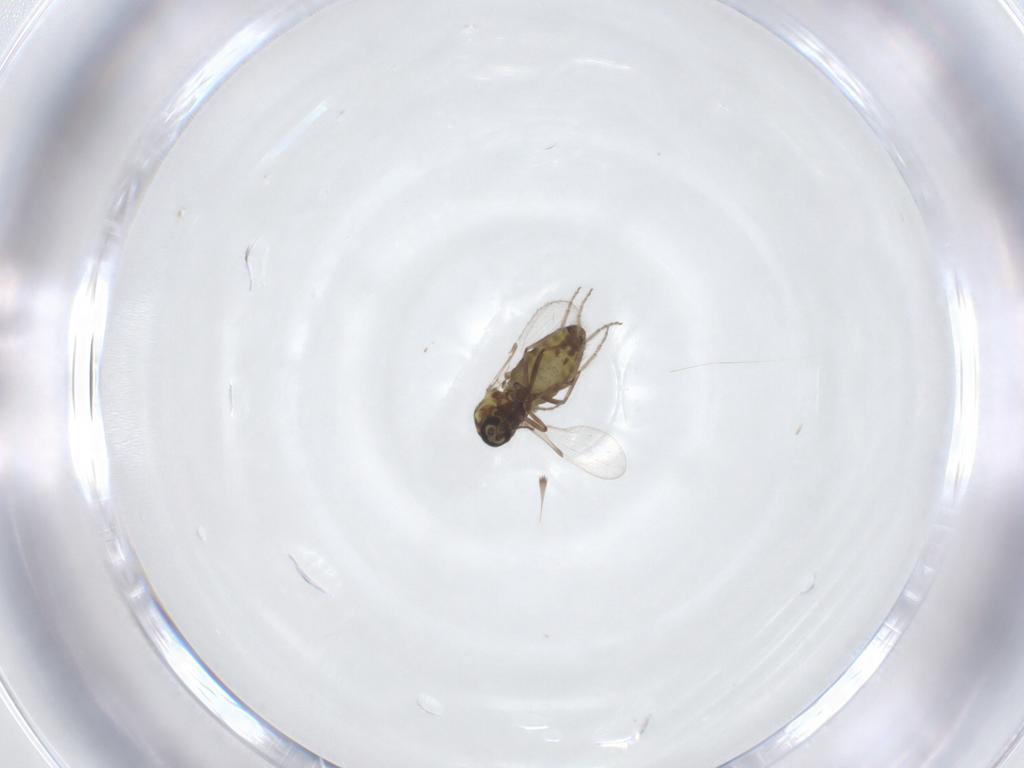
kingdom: Animalia
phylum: Arthropoda
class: Insecta
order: Diptera
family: Ceratopogonidae
